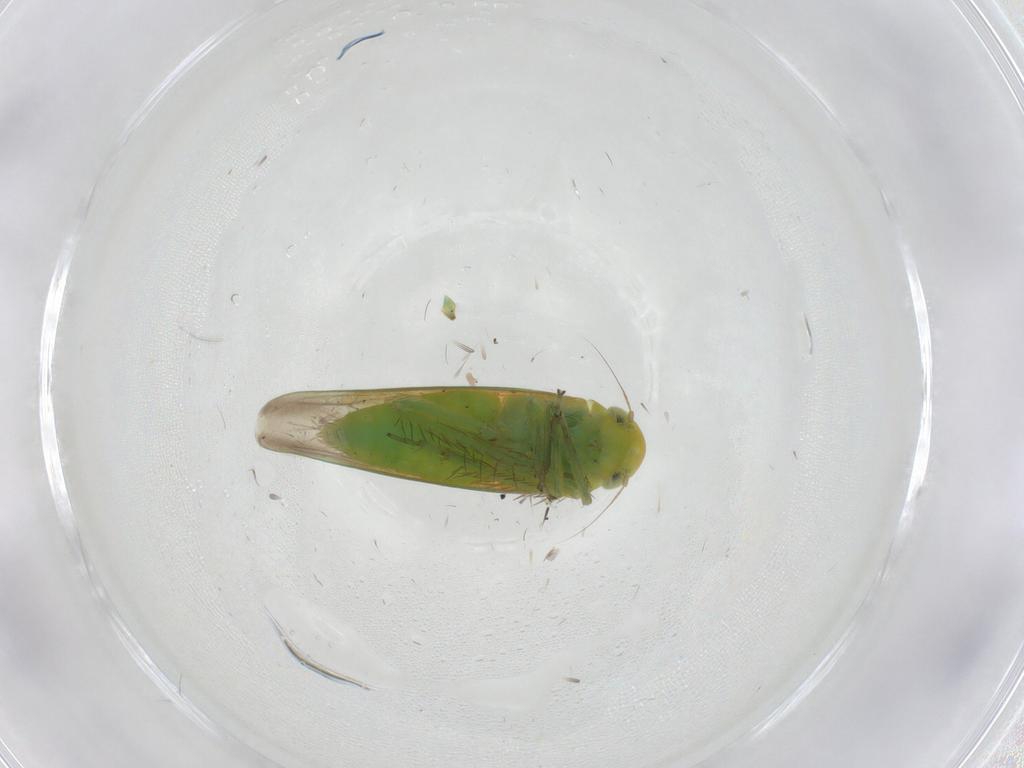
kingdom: Animalia
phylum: Arthropoda
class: Insecta
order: Hemiptera
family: Cicadellidae
